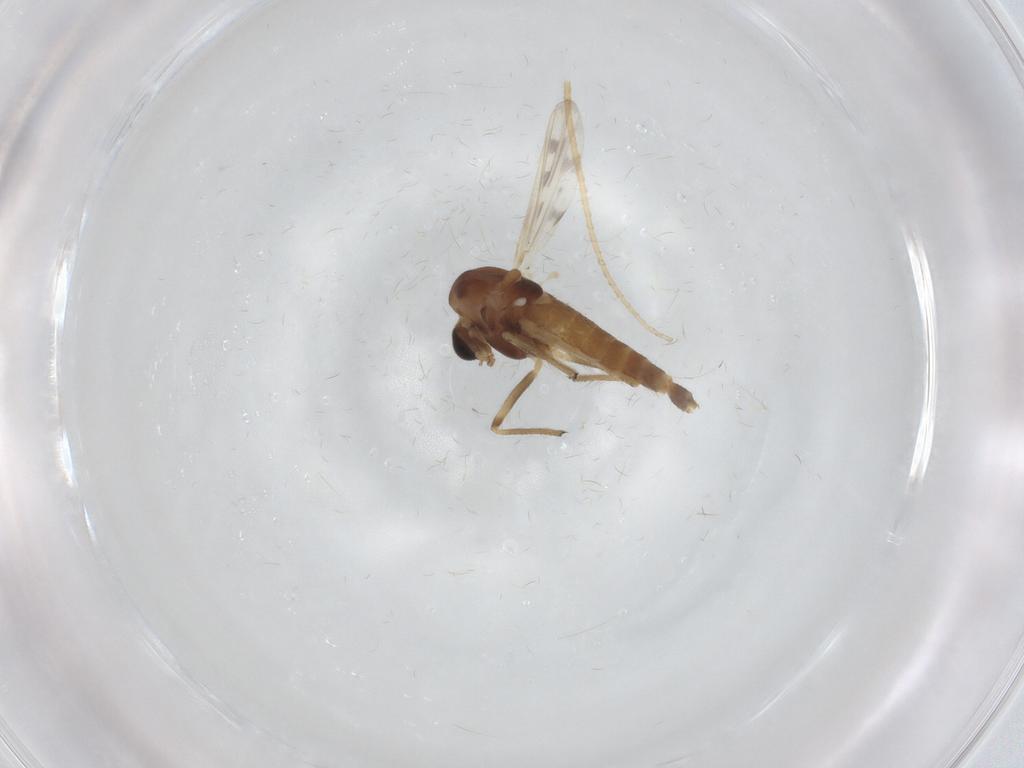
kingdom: Animalia
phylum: Arthropoda
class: Insecta
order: Diptera
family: Chironomidae
